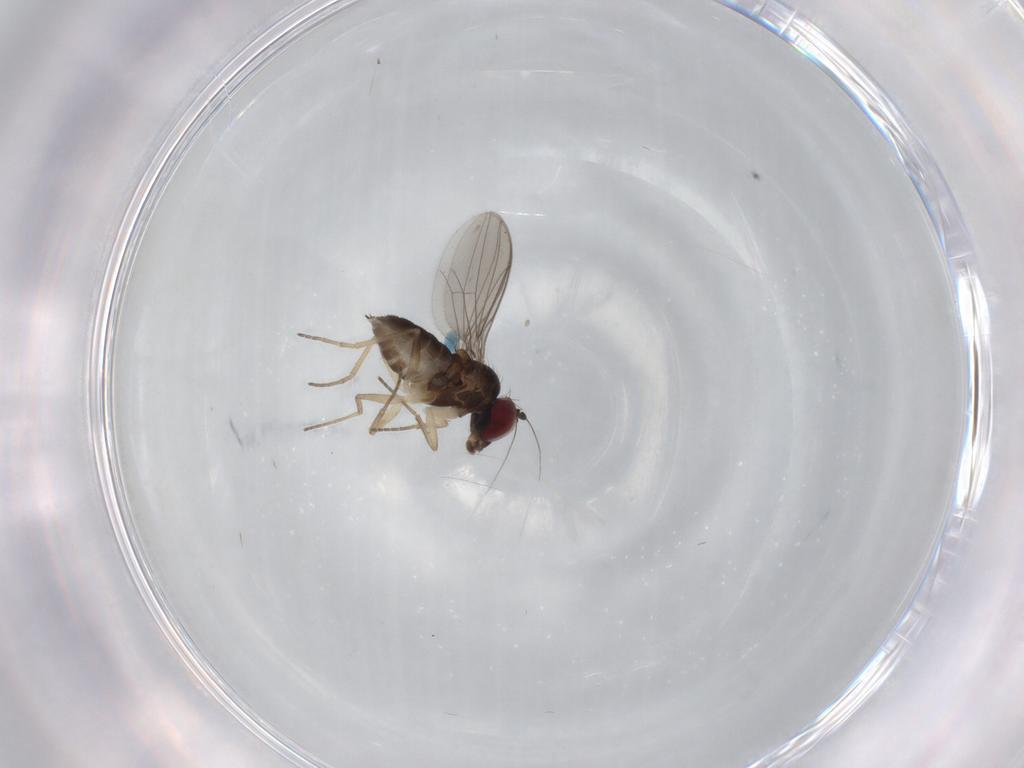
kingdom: Animalia
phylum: Arthropoda
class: Insecta
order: Diptera
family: Dolichopodidae
